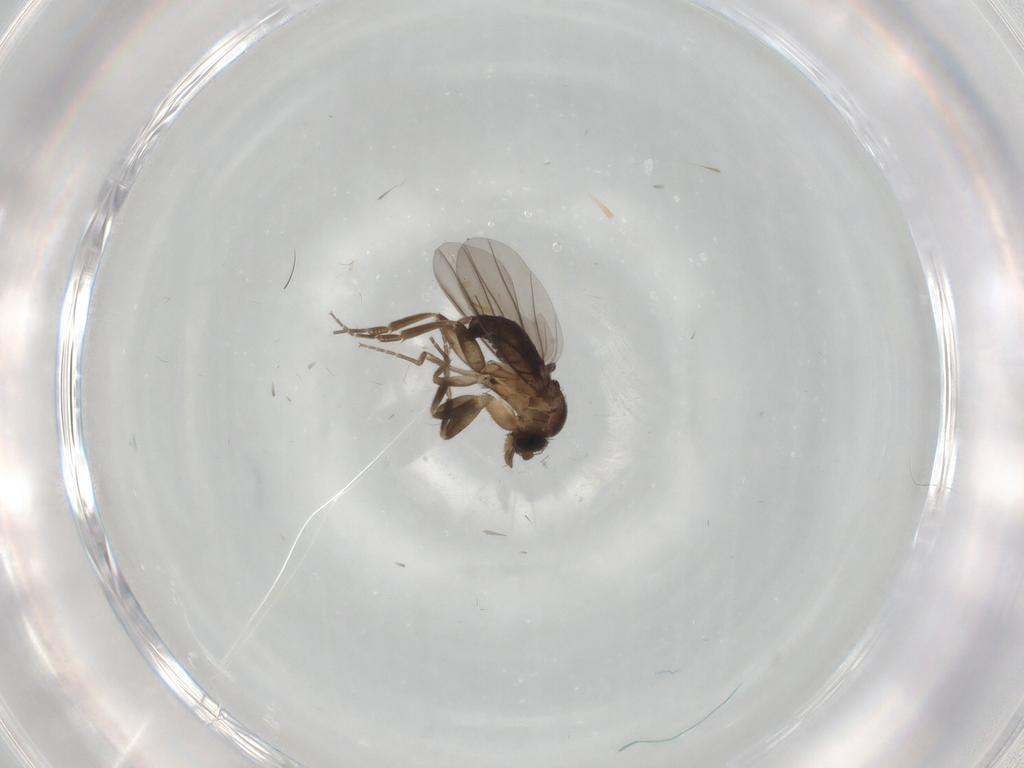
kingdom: Animalia
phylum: Arthropoda
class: Insecta
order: Diptera
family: Phoridae
